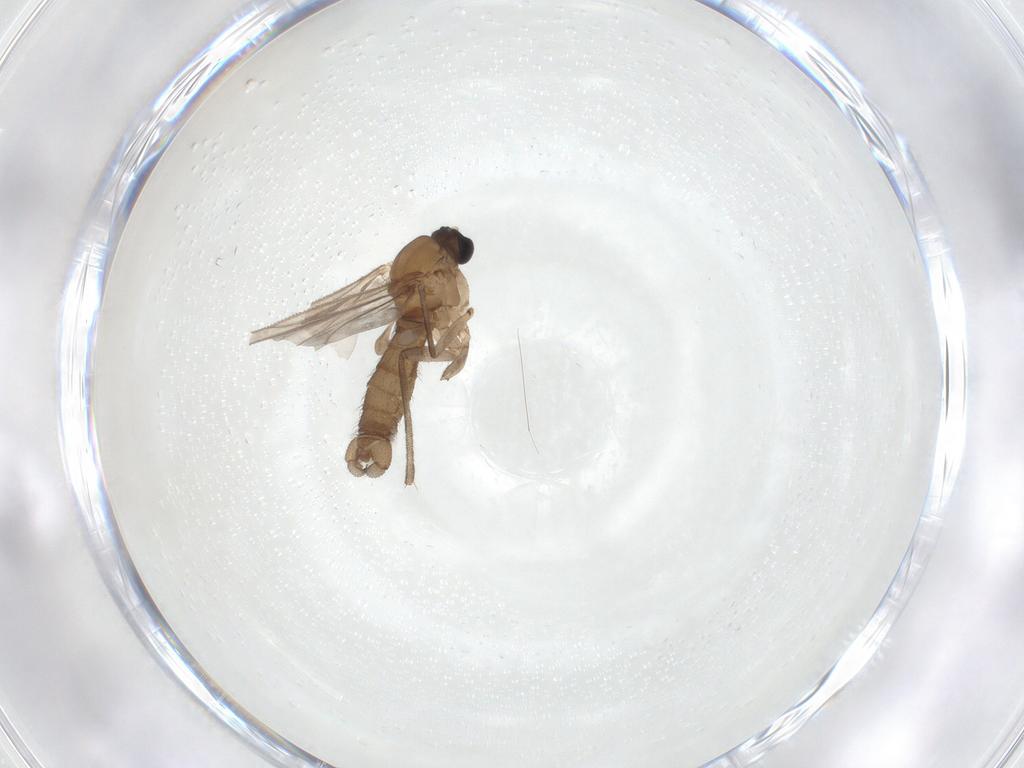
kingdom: Animalia
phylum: Arthropoda
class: Insecta
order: Diptera
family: Sciaridae
